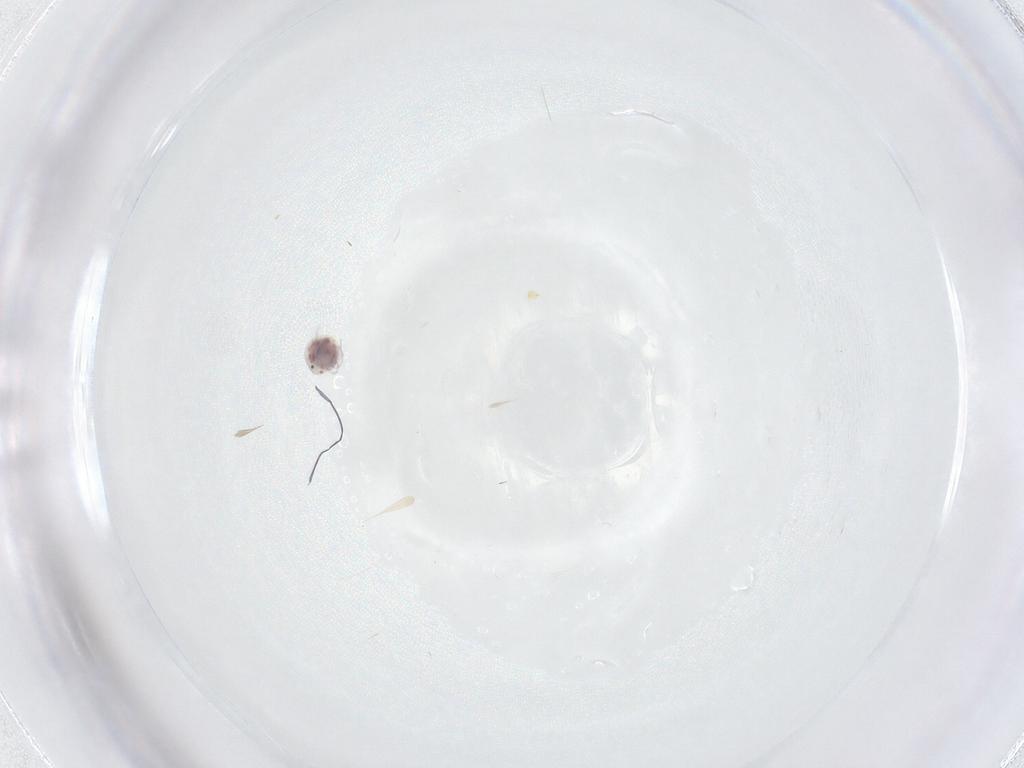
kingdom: Animalia
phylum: Arthropoda
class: Arachnida
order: Trombidiformes
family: Pionidae
